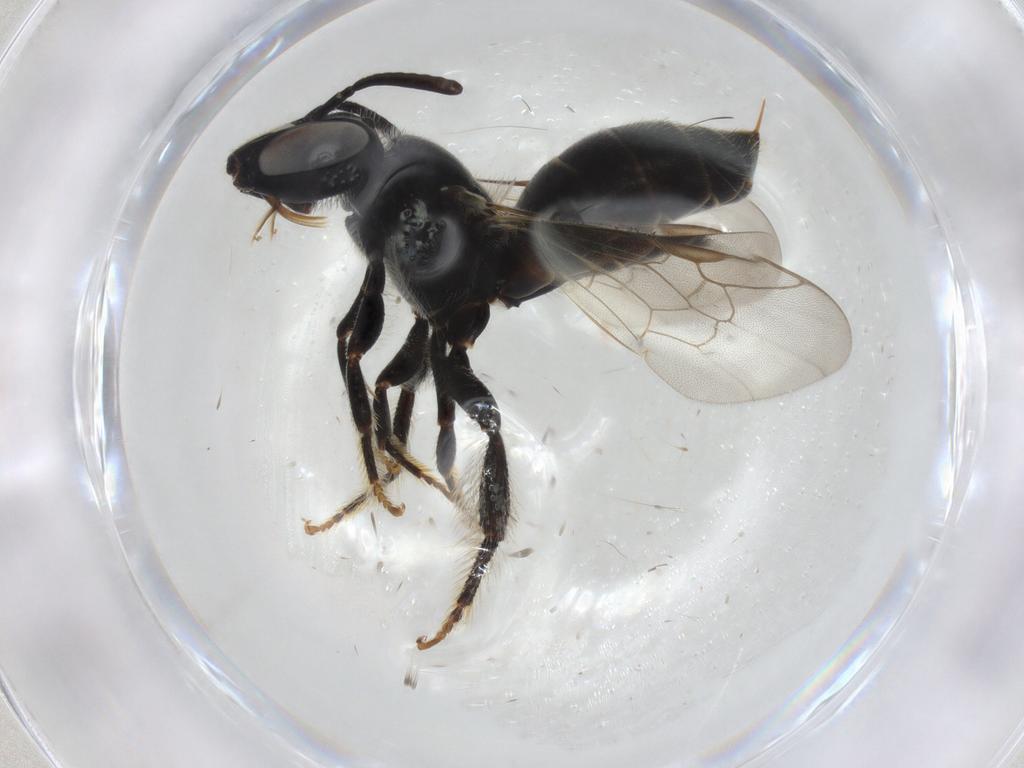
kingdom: Animalia
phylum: Arthropoda
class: Insecta
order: Hymenoptera
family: Apidae
